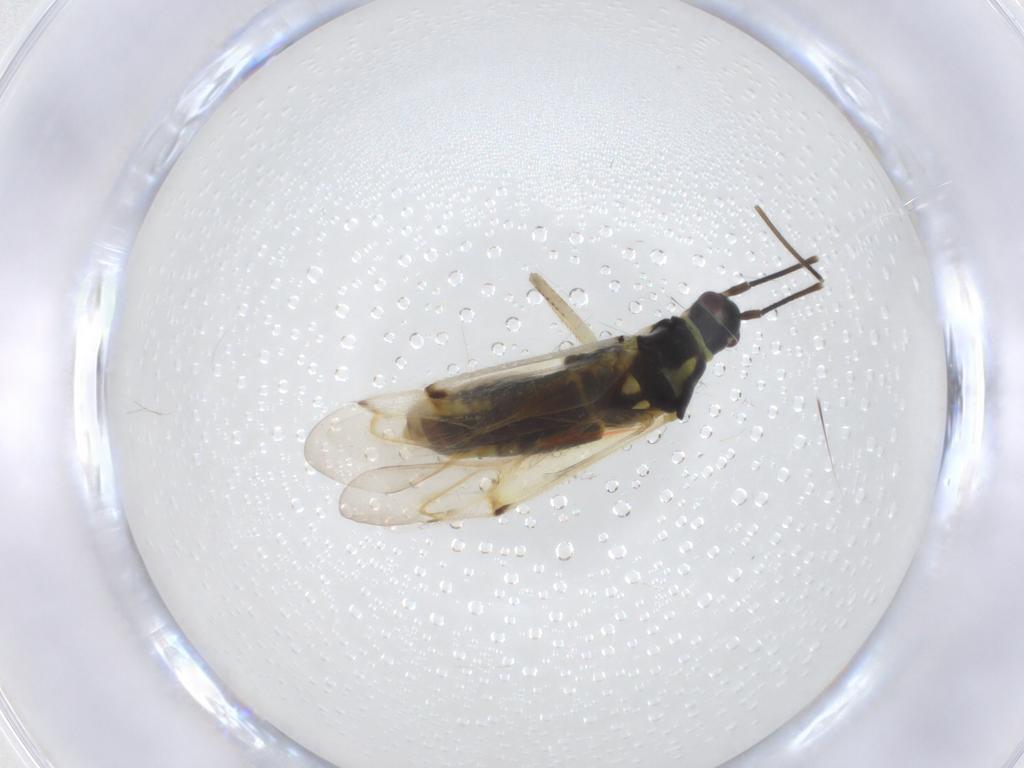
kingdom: Animalia
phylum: Arthropoda
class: Insecta
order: Hemiptera
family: Miridae
